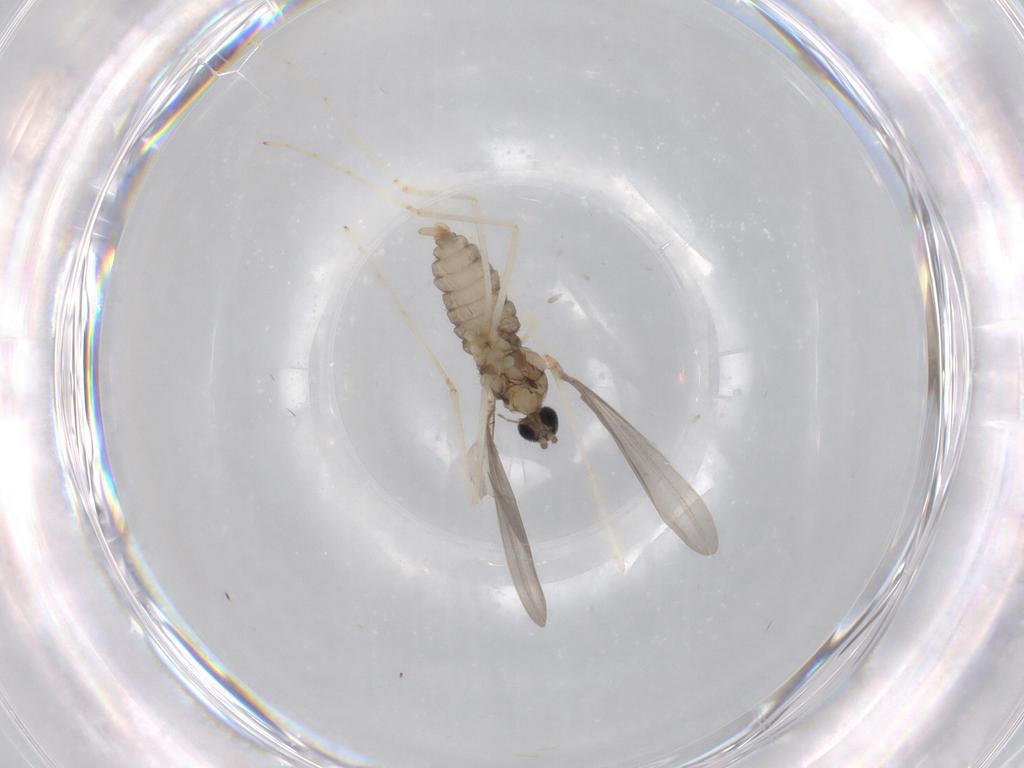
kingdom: Animalia
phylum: Arthropoda
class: Insecta
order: Diptera
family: Cecidomyiidae
